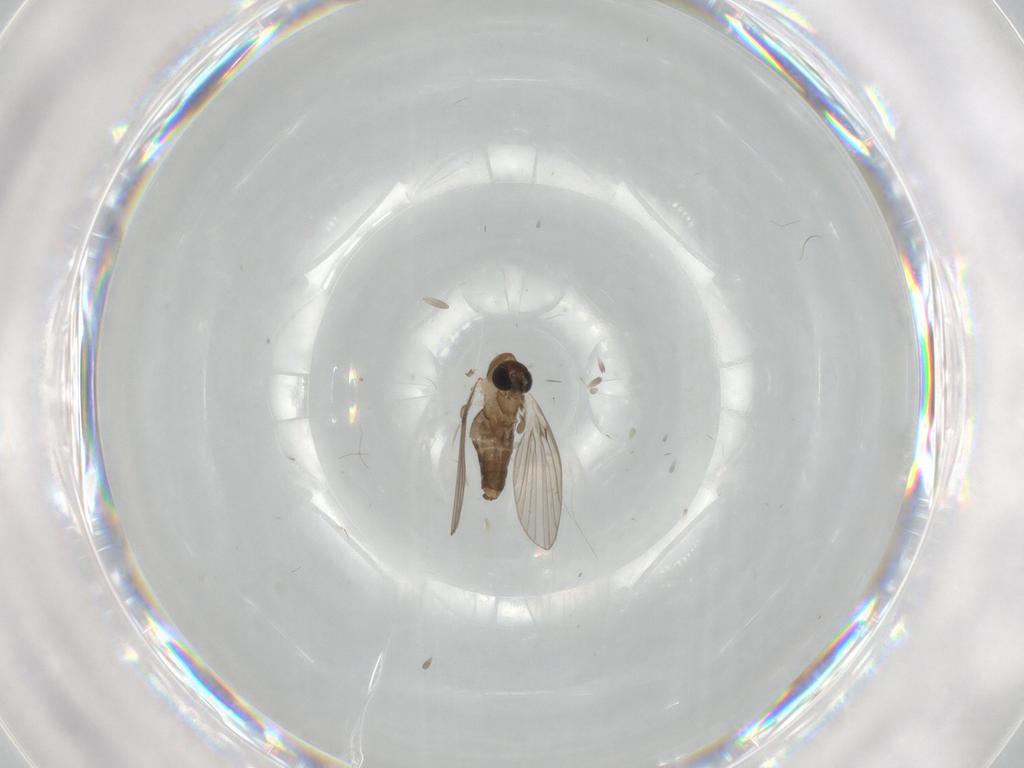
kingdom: Animalia
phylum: Arthropoda
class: Insecta
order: Diptera
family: Tabanidae
